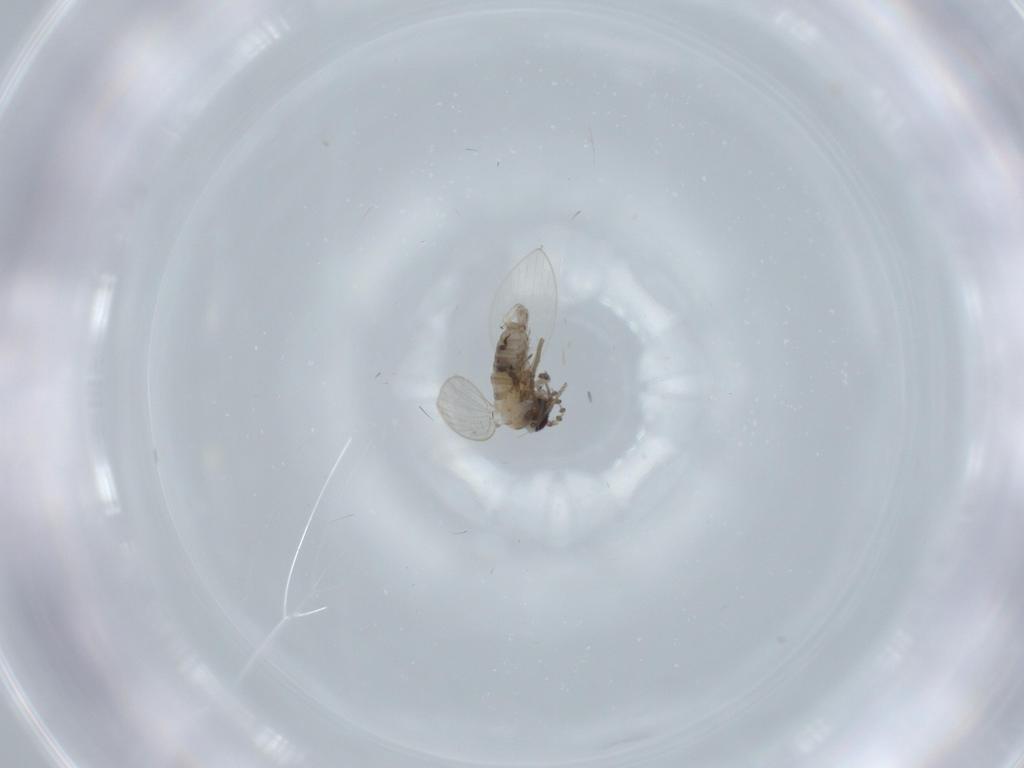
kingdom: Animalia
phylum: Arthropoda
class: Insecta
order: Diptera
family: Psychodidae
